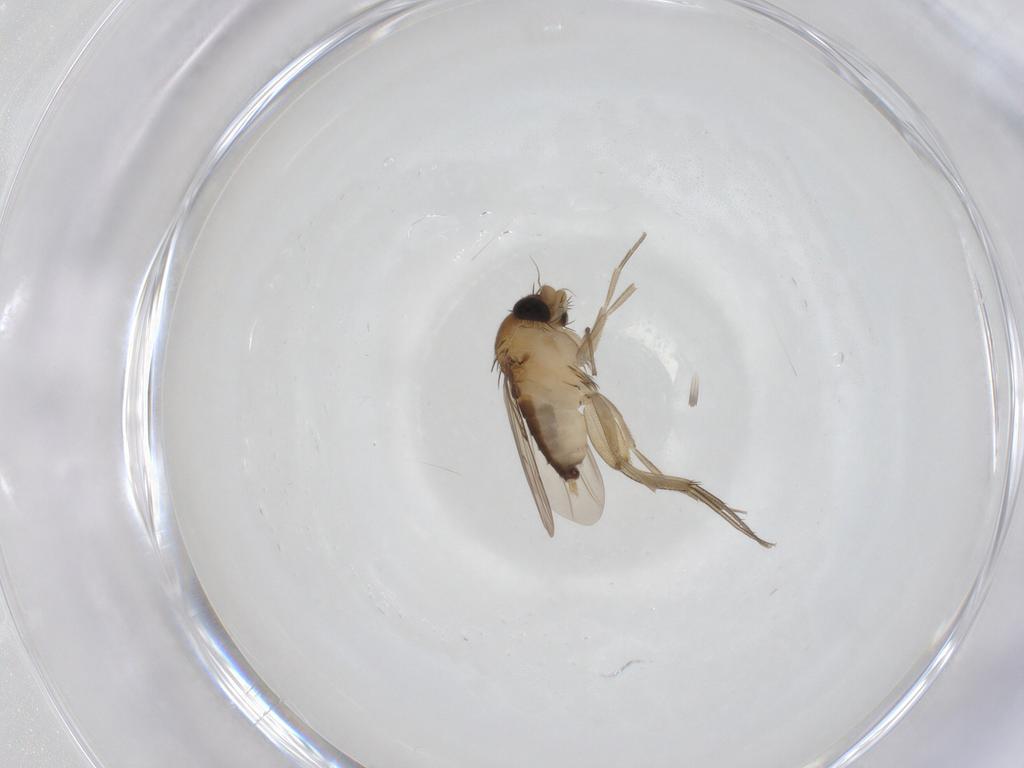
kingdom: Animalia
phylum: Arthropoda
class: Insecta
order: Diptera
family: Phoridae
